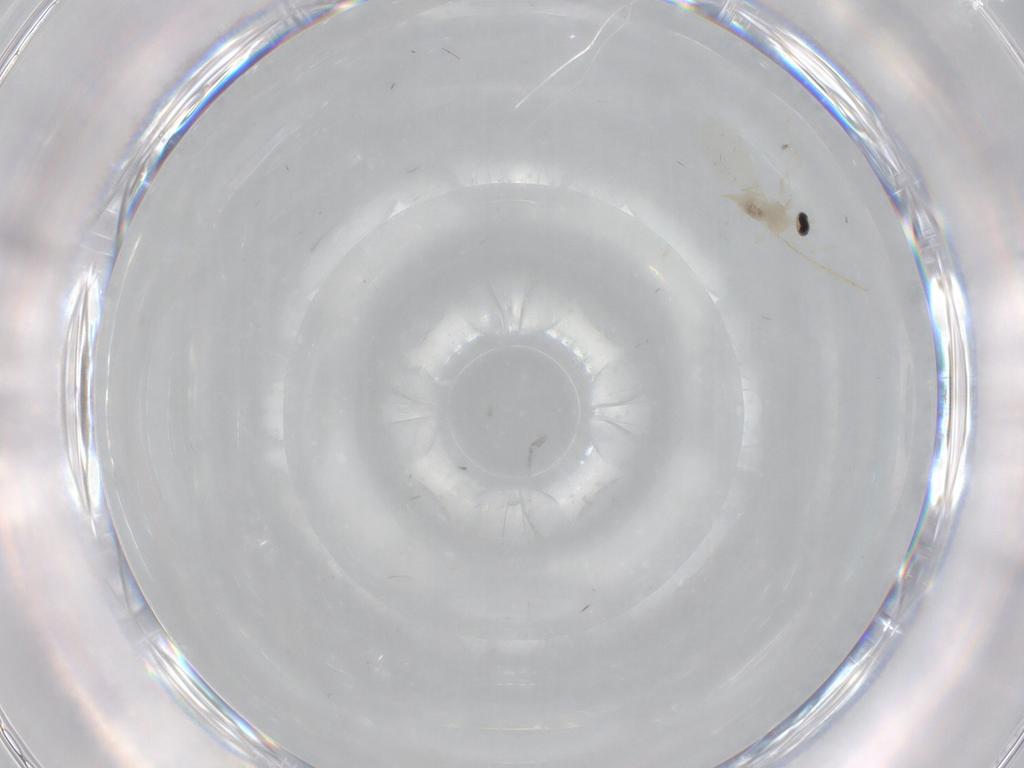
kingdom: Animalia
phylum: Arthropoda
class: Insecta
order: Diptera
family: Cecidomyiidae
